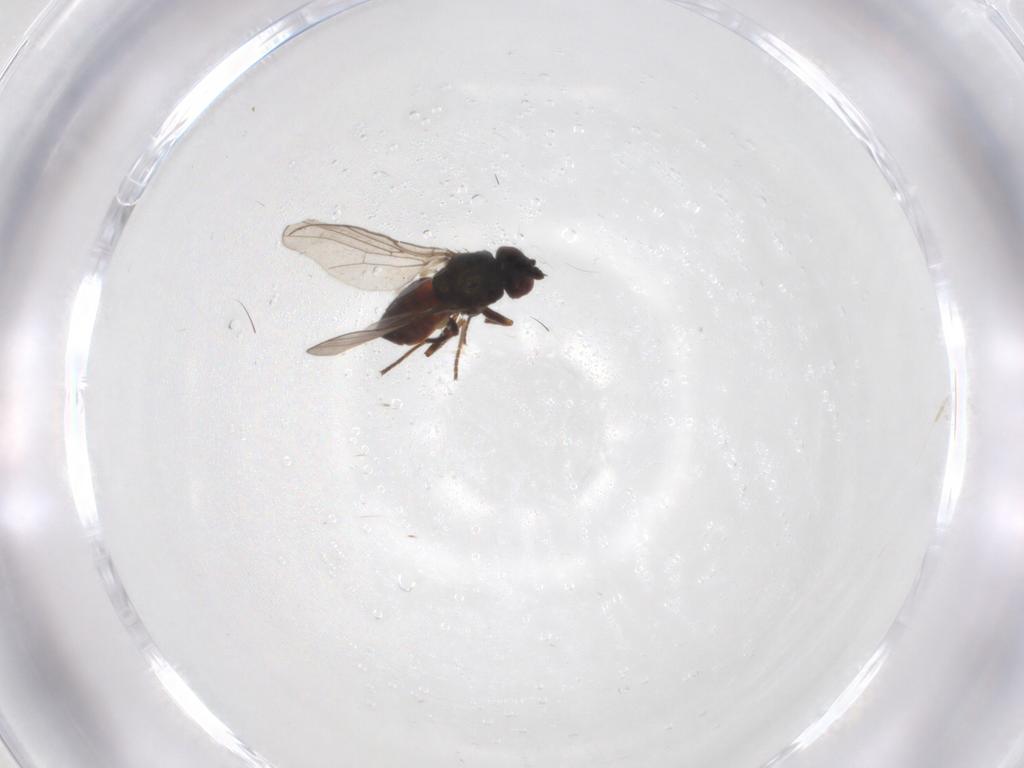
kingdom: Animalia
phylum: Arthropoda
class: Insecta
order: Diptera
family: Chloropidae
